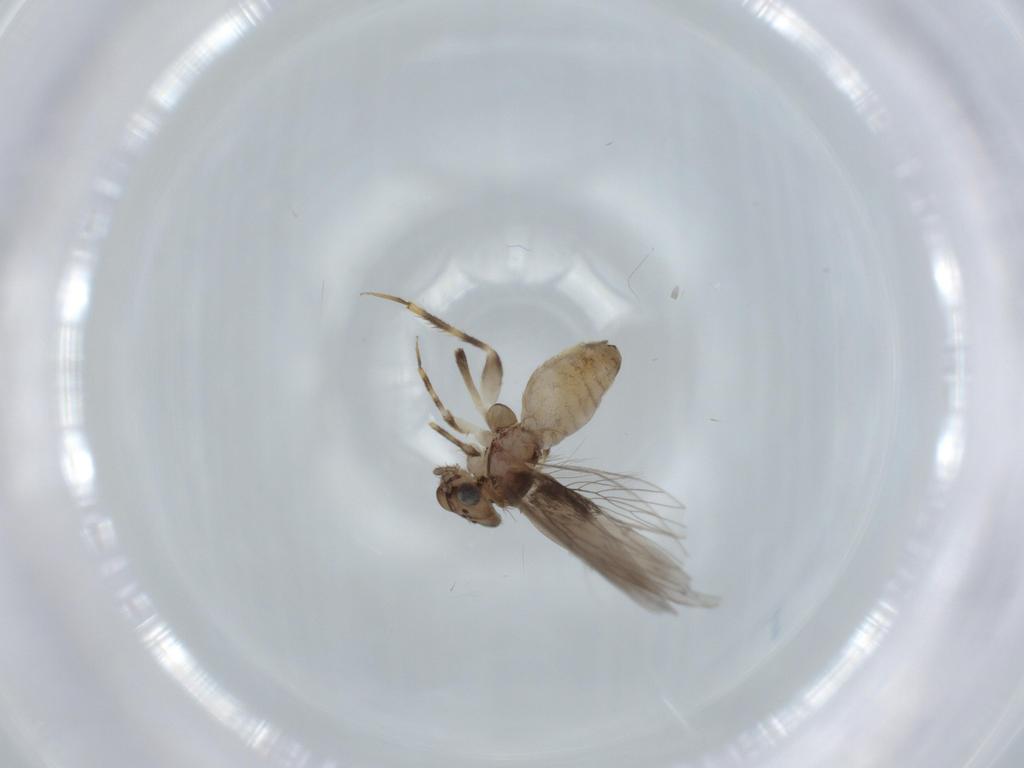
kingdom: Animalia
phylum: Arthropoda
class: Insecta
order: Psocodea
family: Lepidopsocidae
